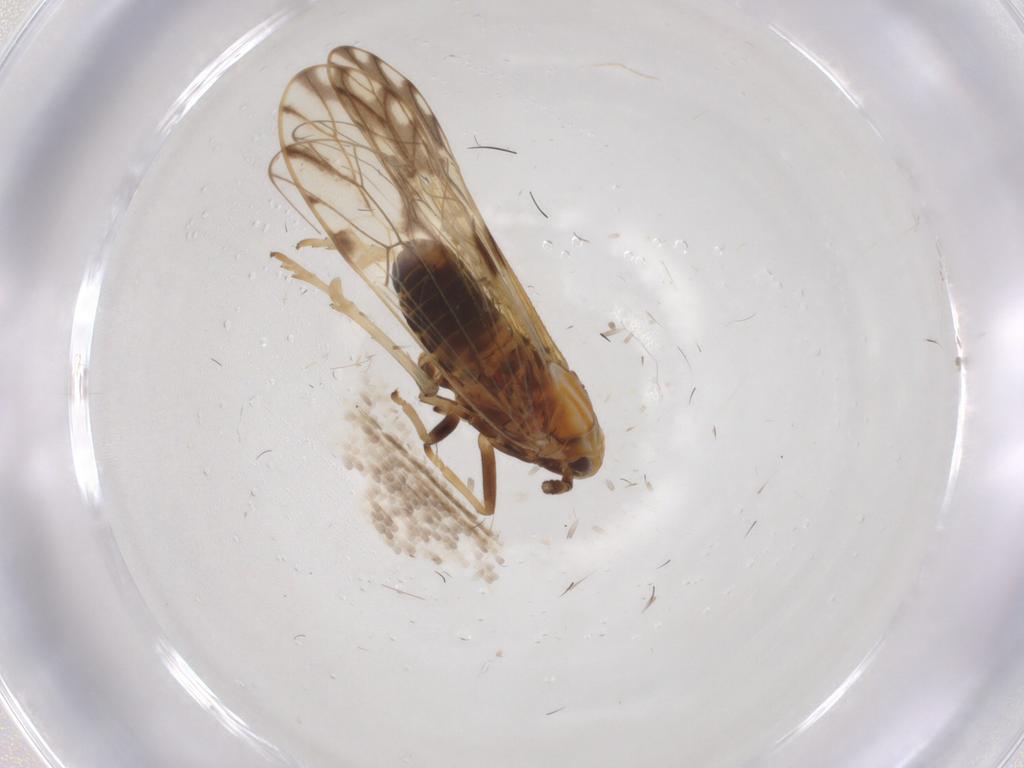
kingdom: Animalia
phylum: Arthropoda
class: Insecta
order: Hemiptera
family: Delphacidae
